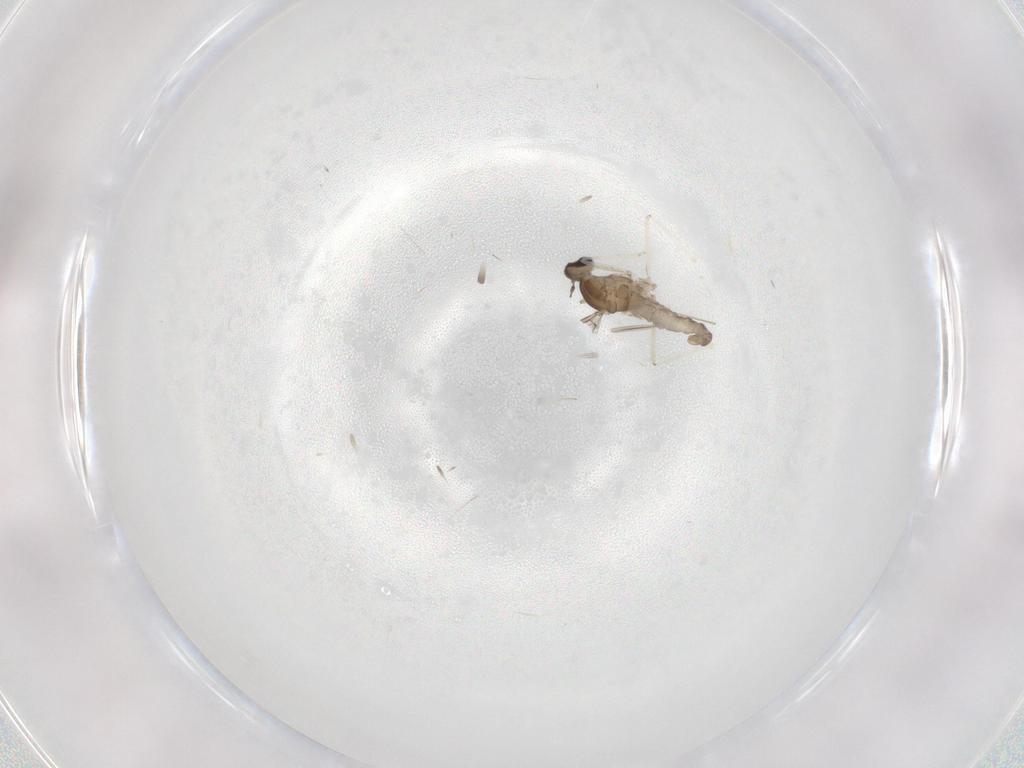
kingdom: Animalia
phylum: Arthropoda
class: Insecta
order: Diptera
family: Cecidomyiidae
